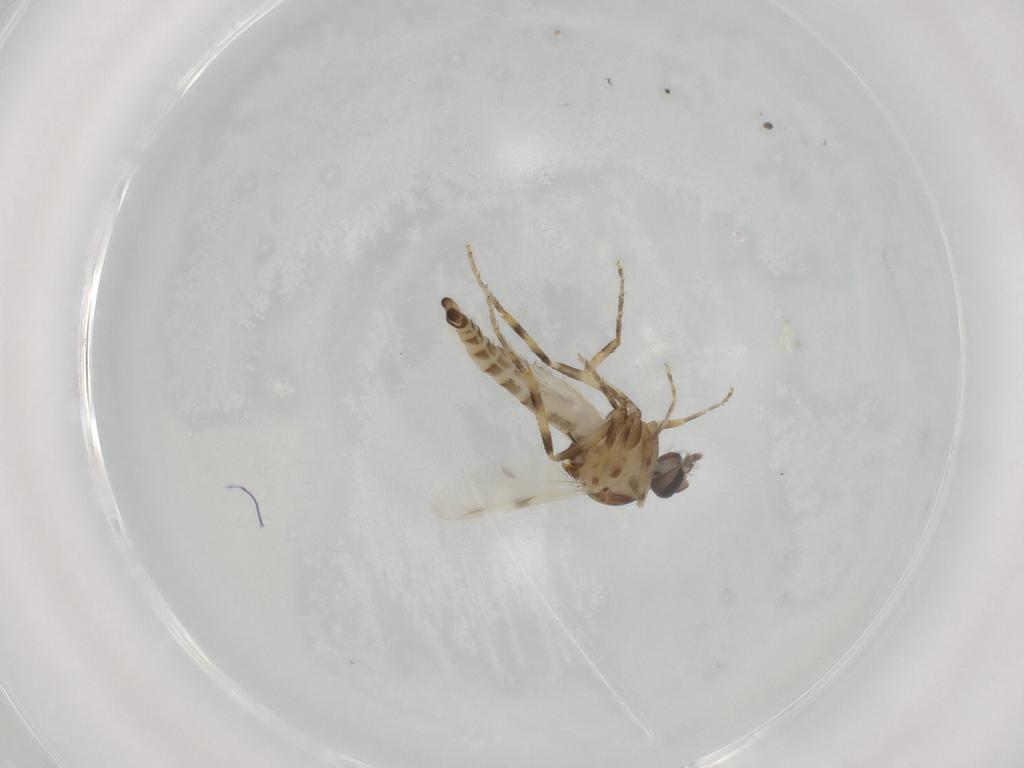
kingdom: Animalia
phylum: Arthropoda
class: Insecta
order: Diptera
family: Ceratopogonidae
